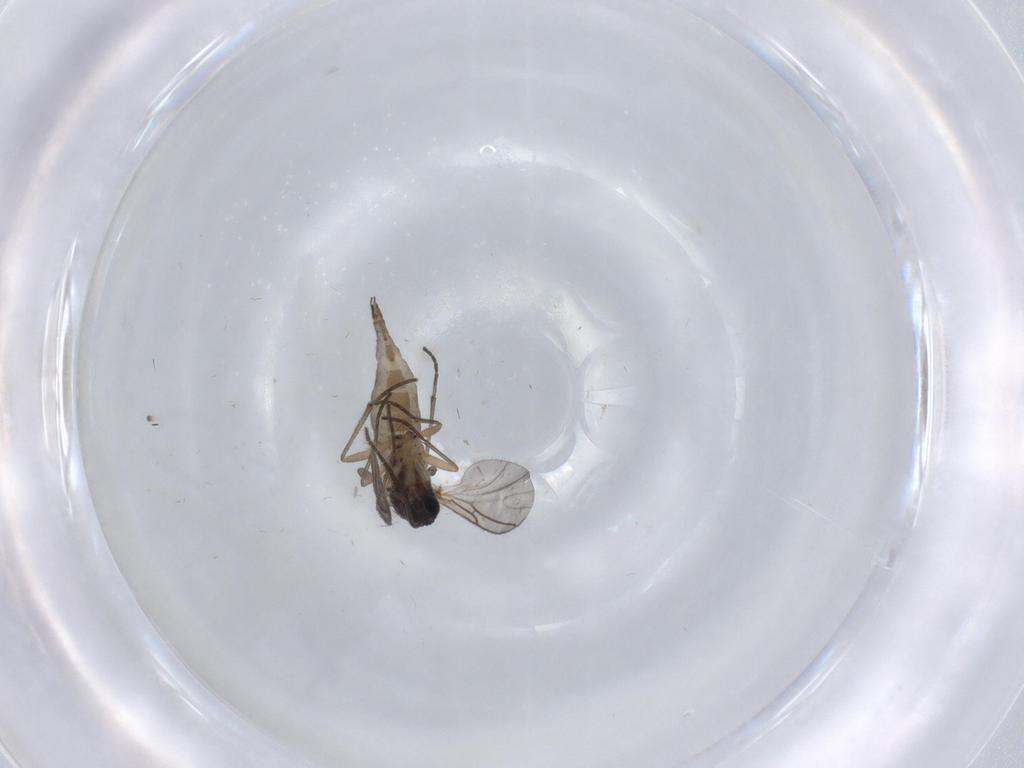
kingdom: Animalia
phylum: Arthropoda
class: Insecta
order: Diptera
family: Sciaridae
